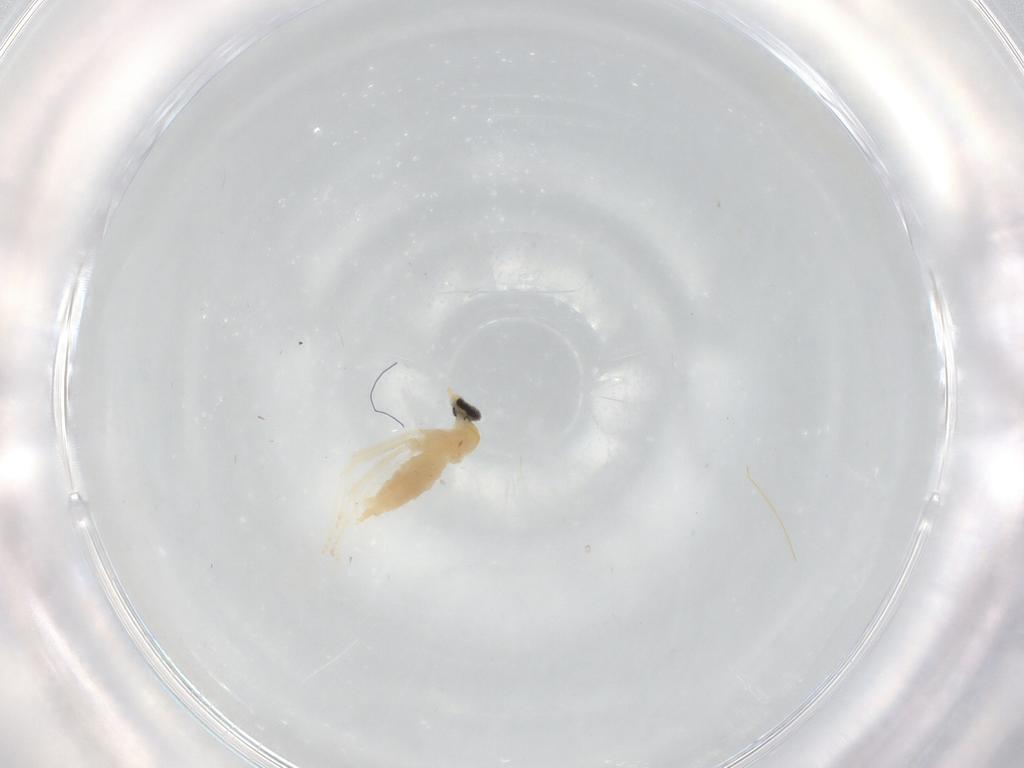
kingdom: Animalia
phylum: Arthropoda
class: Insecta
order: Diptera
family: Cecidomyiidae
